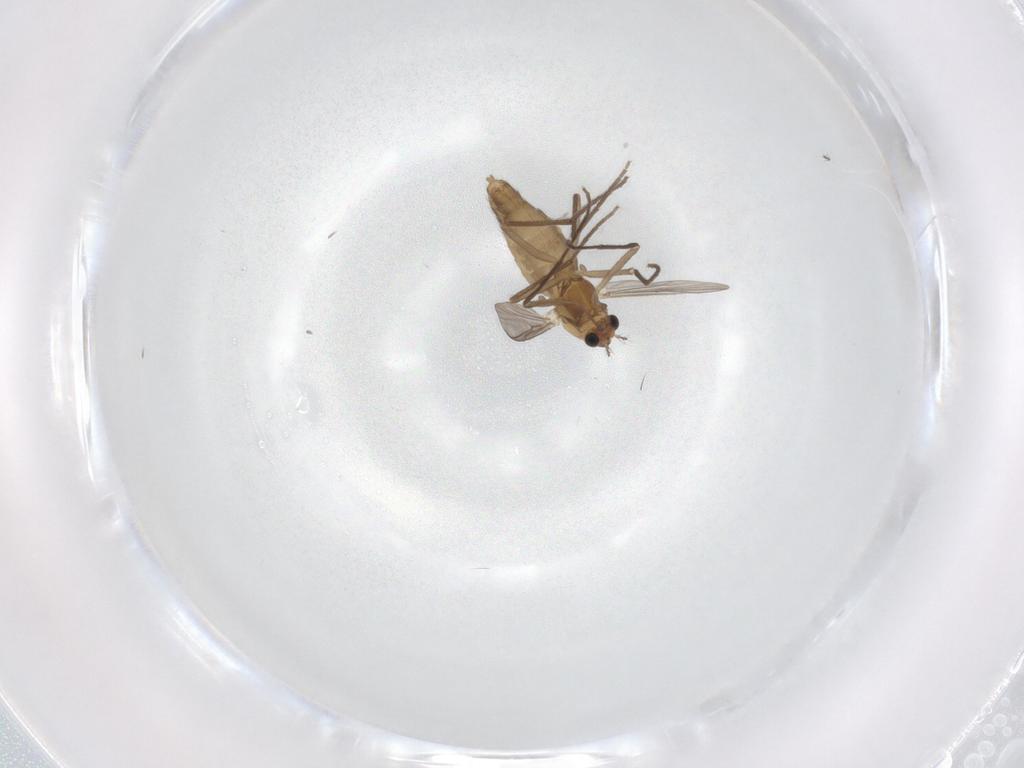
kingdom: Animalia
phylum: Arthropoda
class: Insecta
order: Diptera
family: Chironomidae
